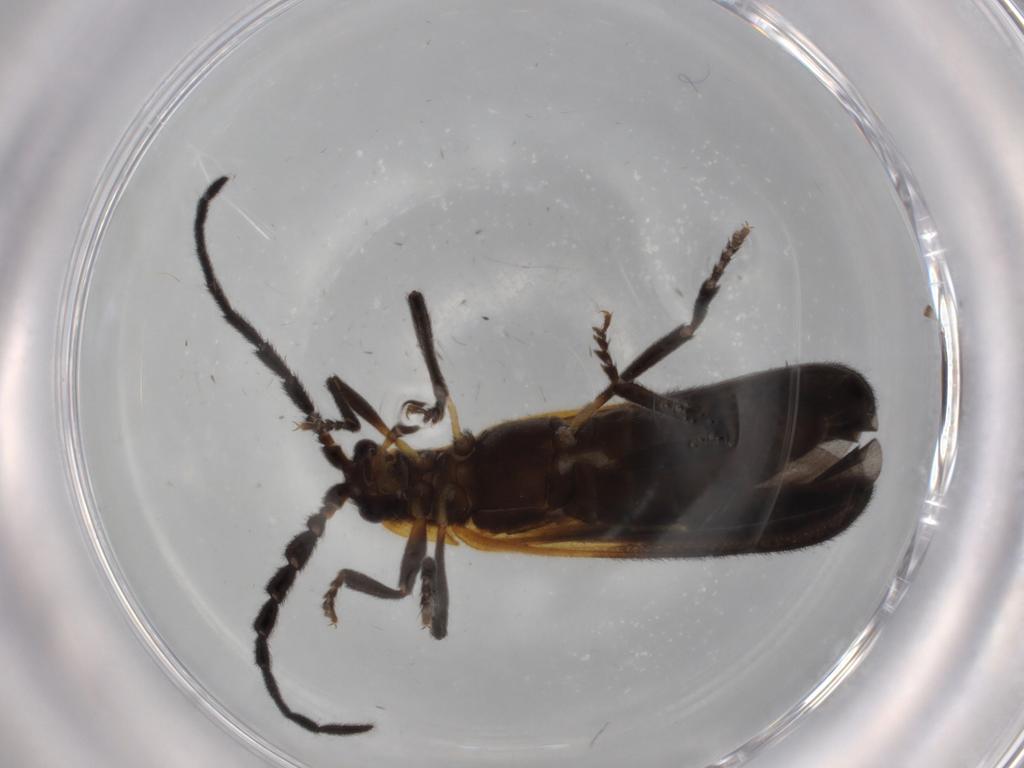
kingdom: Animalia
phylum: Arthropoda
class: Insecta
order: Coleoptera
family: Lycidae
